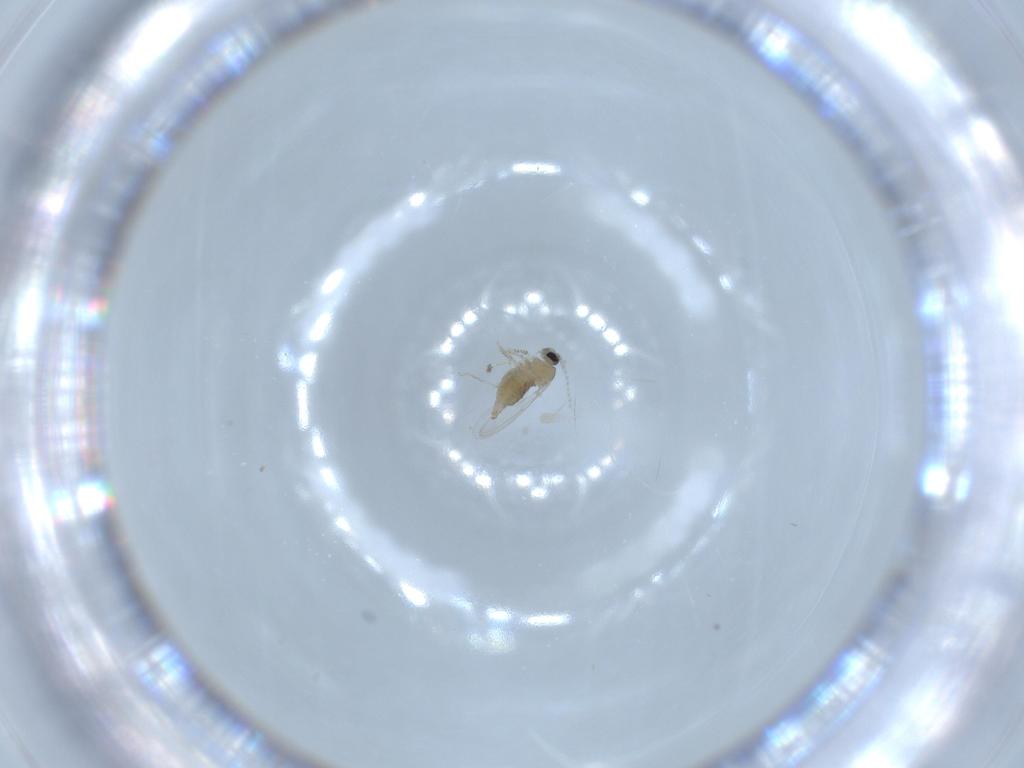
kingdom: Animalia
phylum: Arthropoda
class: Insecta
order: Diptera
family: Cecidomyiidae
